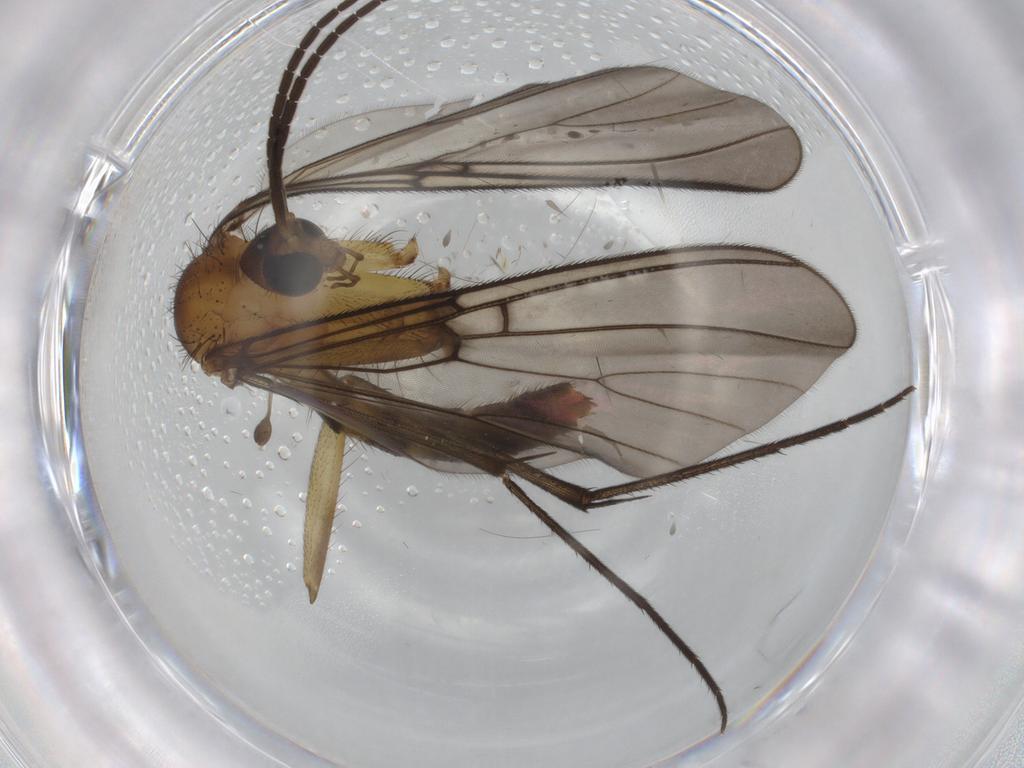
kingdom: Animalia
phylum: Arthropoda
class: Insecta
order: Diptera
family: Mycetophilidae
